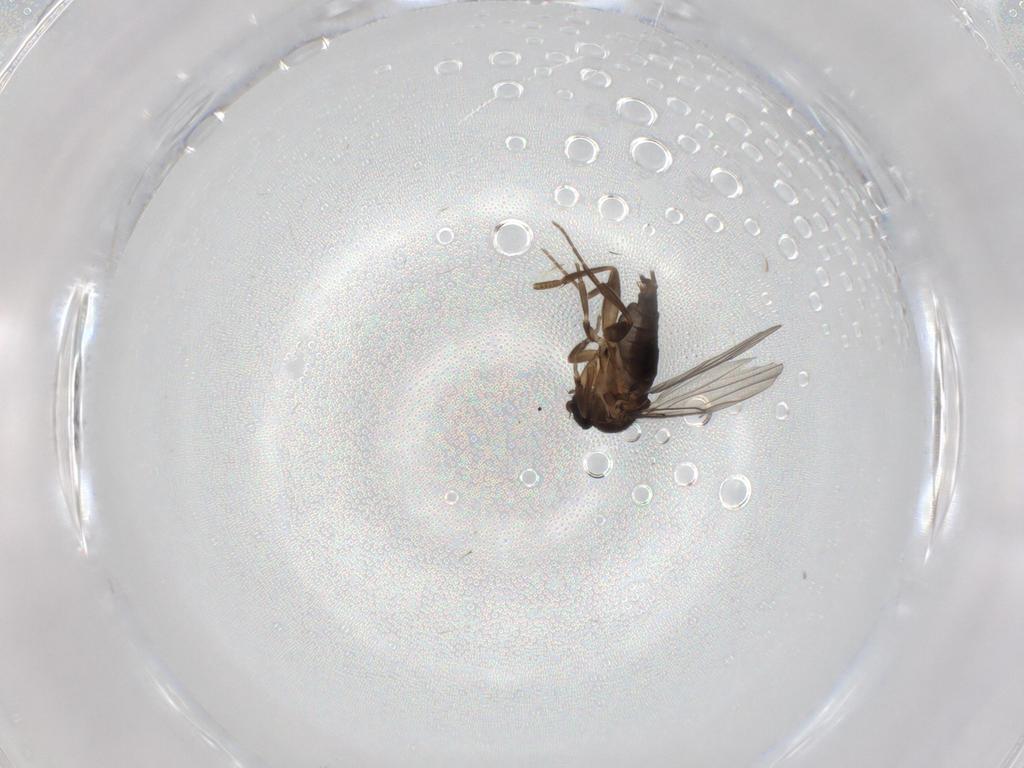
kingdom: Animalia
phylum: Arthropoda
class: Insecta
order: Diptera
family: Phoridae
